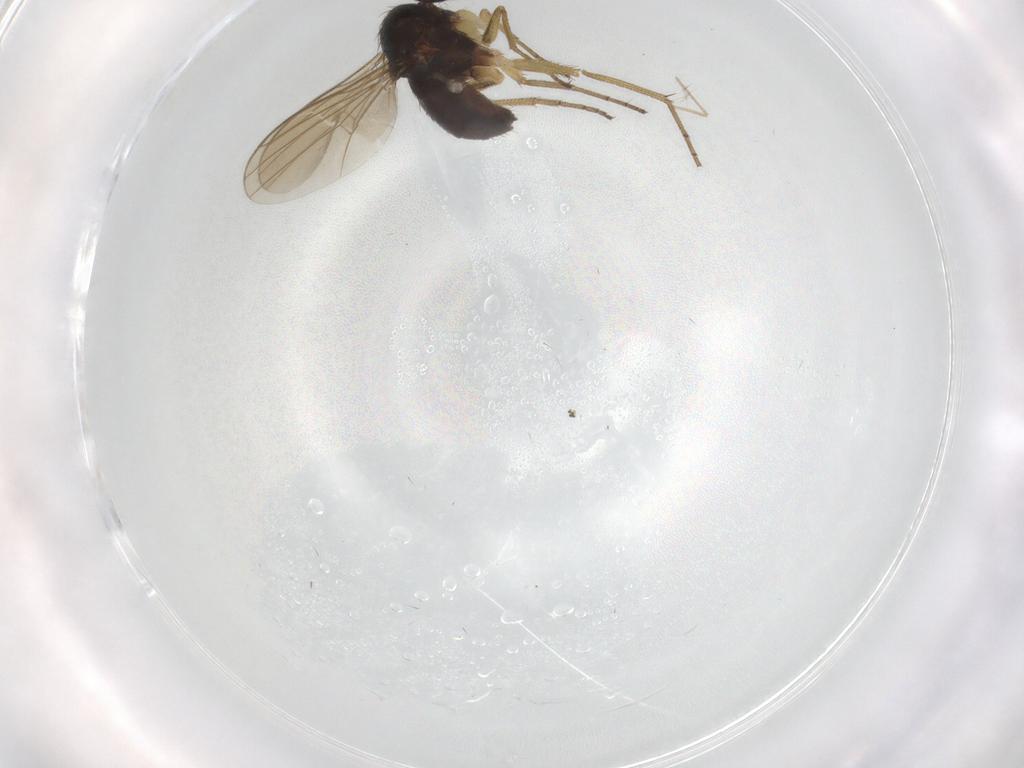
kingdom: Animalia
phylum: Arthropoda
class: Insecta
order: Diptera
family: Dolichopodidae
